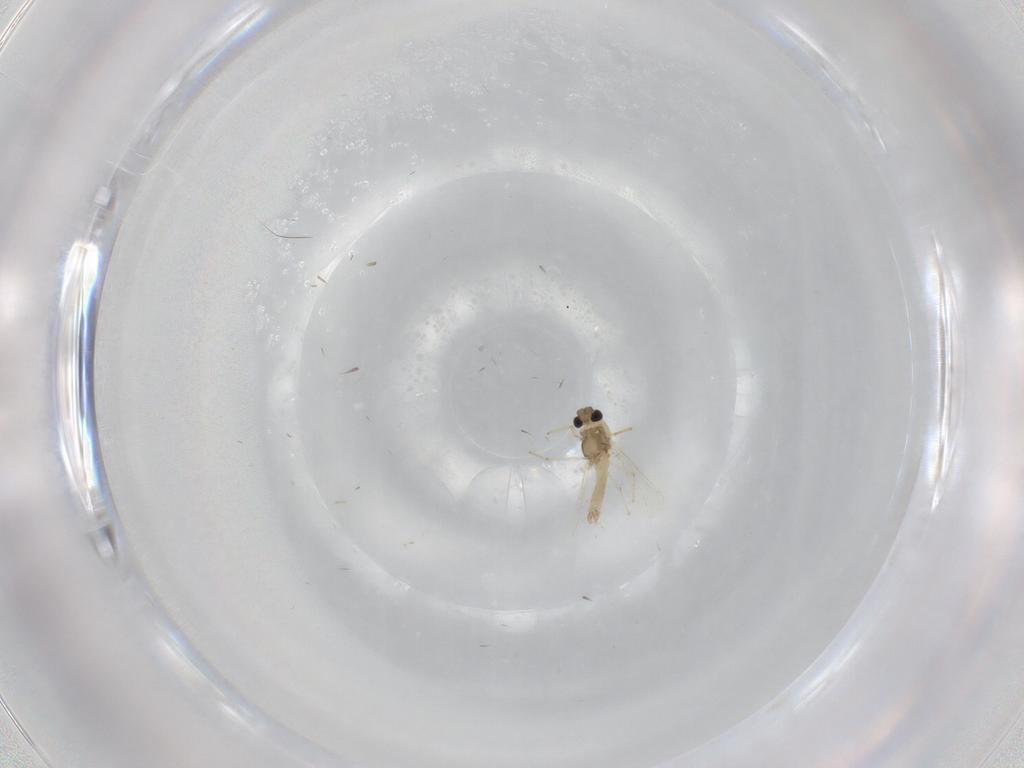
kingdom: Animalia
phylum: Arthropoda
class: Insecta
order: Diptera
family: Chironomidae
